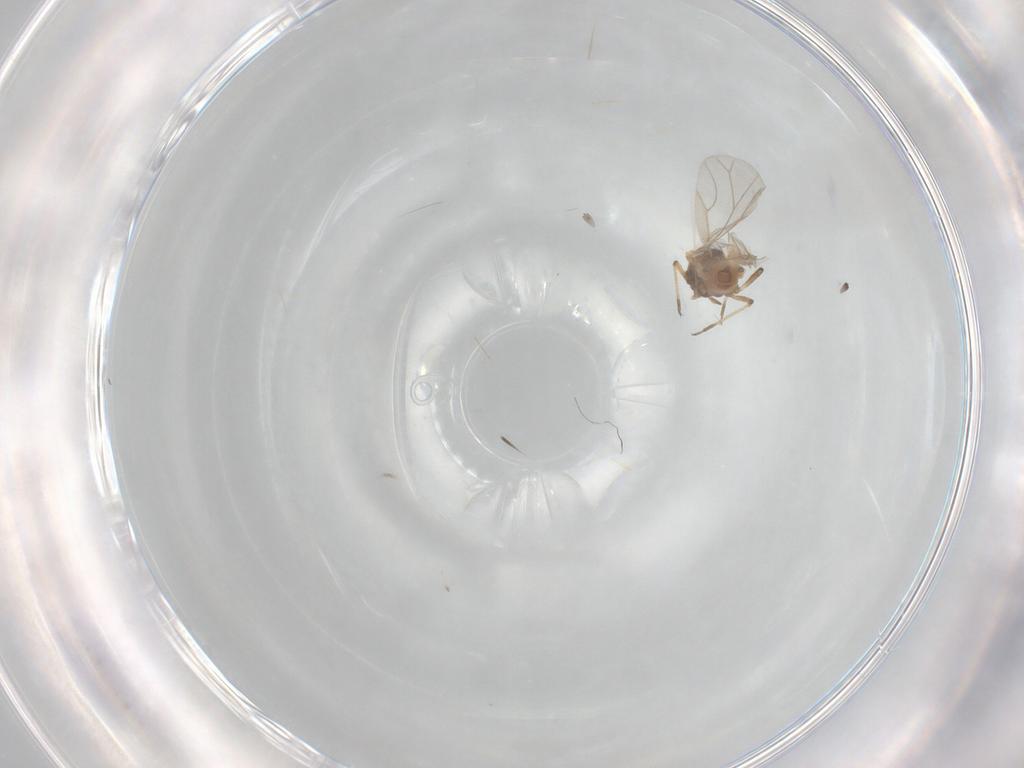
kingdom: Animalia
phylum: Arthropoda
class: Insecta
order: Hemiptera
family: Aphididae
